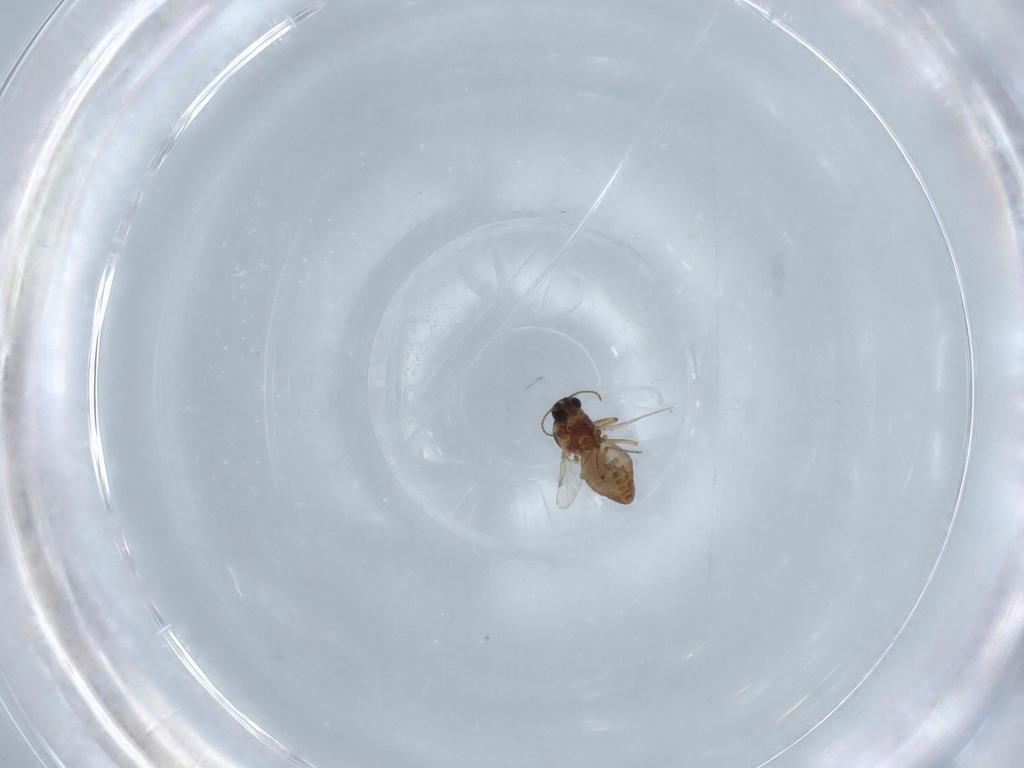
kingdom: Animalia
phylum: Arthropoda
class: Insecta
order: Diptera
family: Ceratopogonidae
